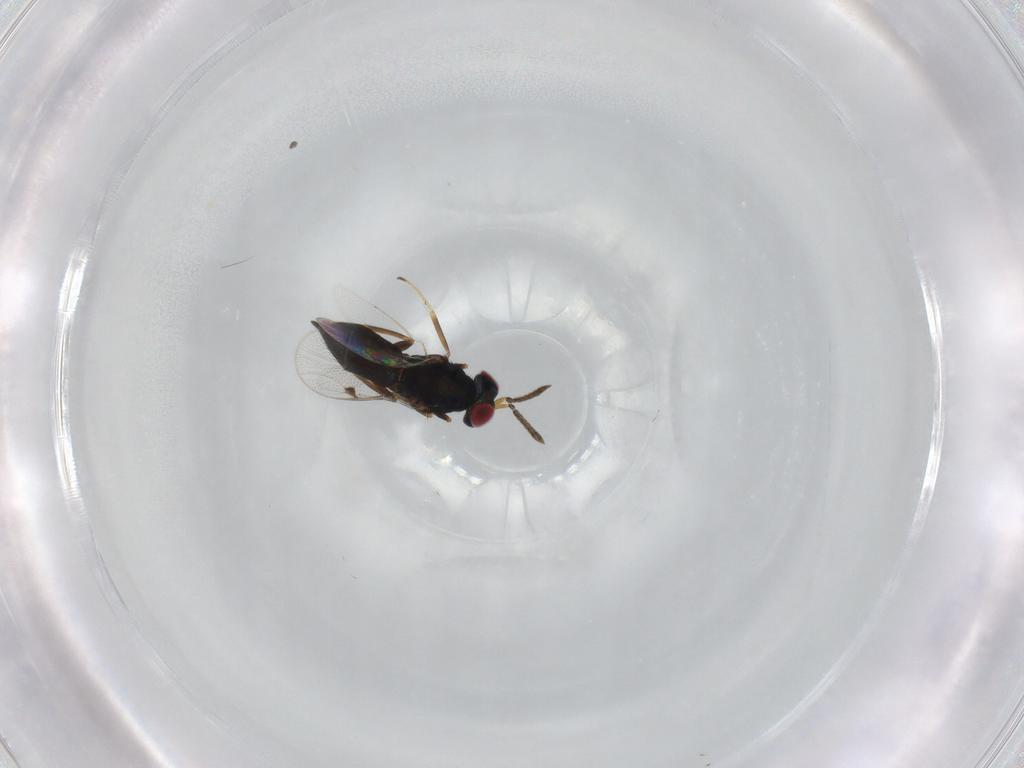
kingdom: Animalia
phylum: Arthropoda
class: Insecta
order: Hymenoptera
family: Pteromalidae
